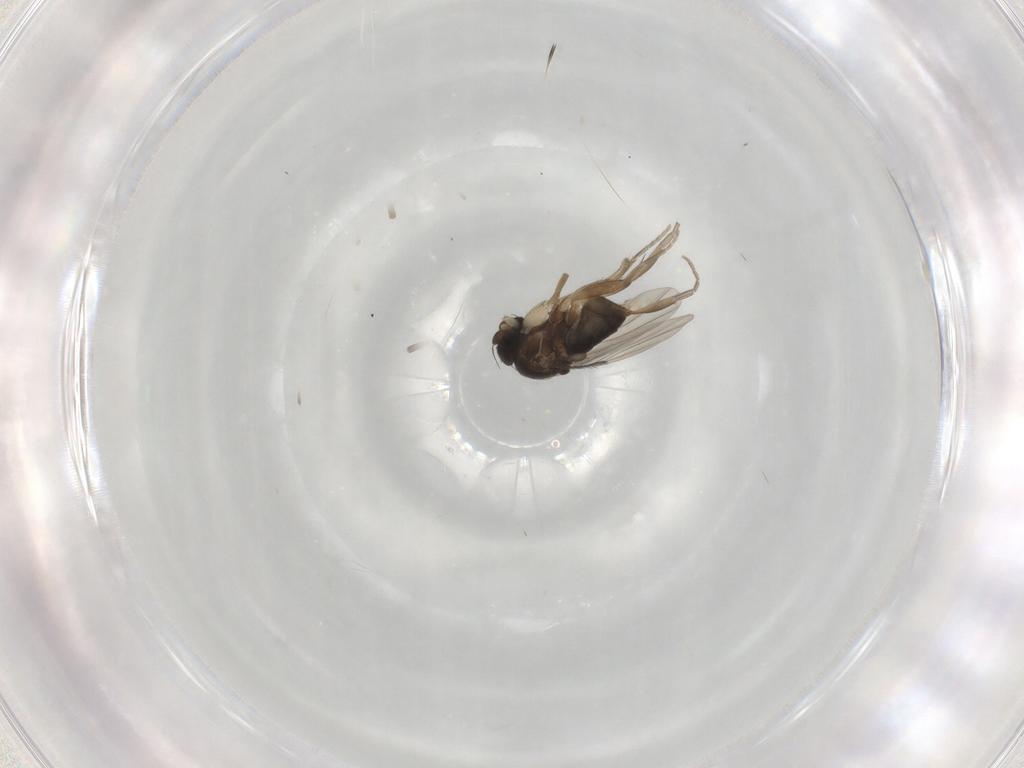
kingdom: Animalia
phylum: Arthropoda
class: Insecta
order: Diptera
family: Phoridae
